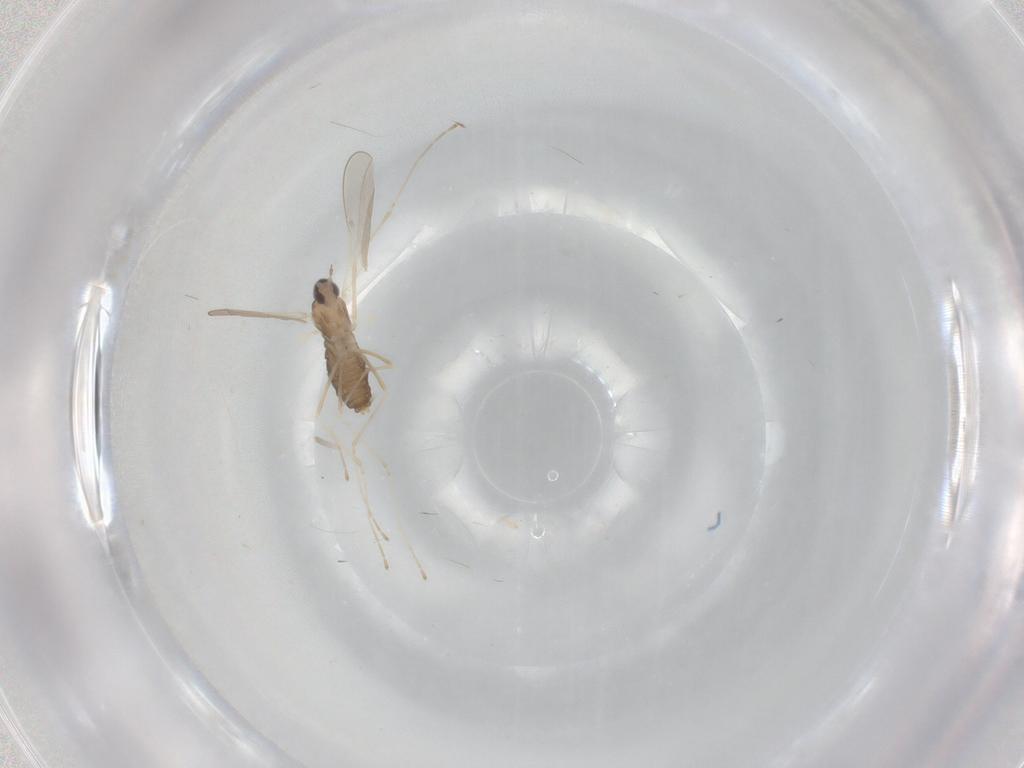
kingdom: Animalia
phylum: Arthropoda
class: Insecta
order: Diptera
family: Cecidomyiidae
